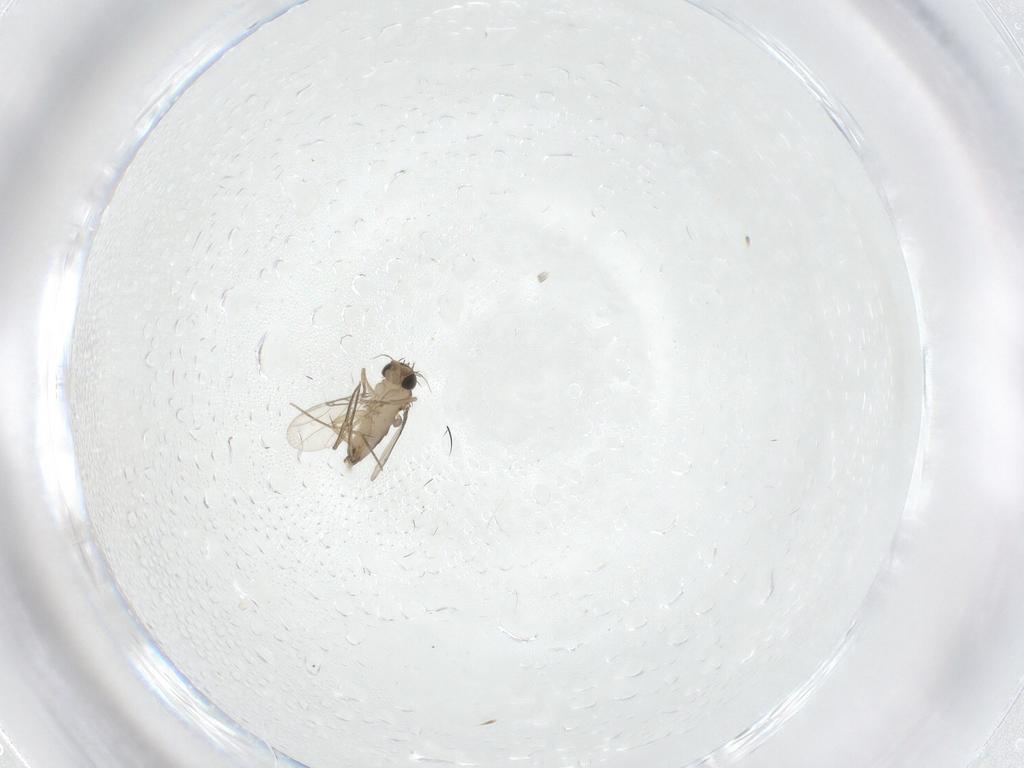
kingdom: Animalia
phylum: Arthropoda
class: Insecta
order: Diptera
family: Phoridae
